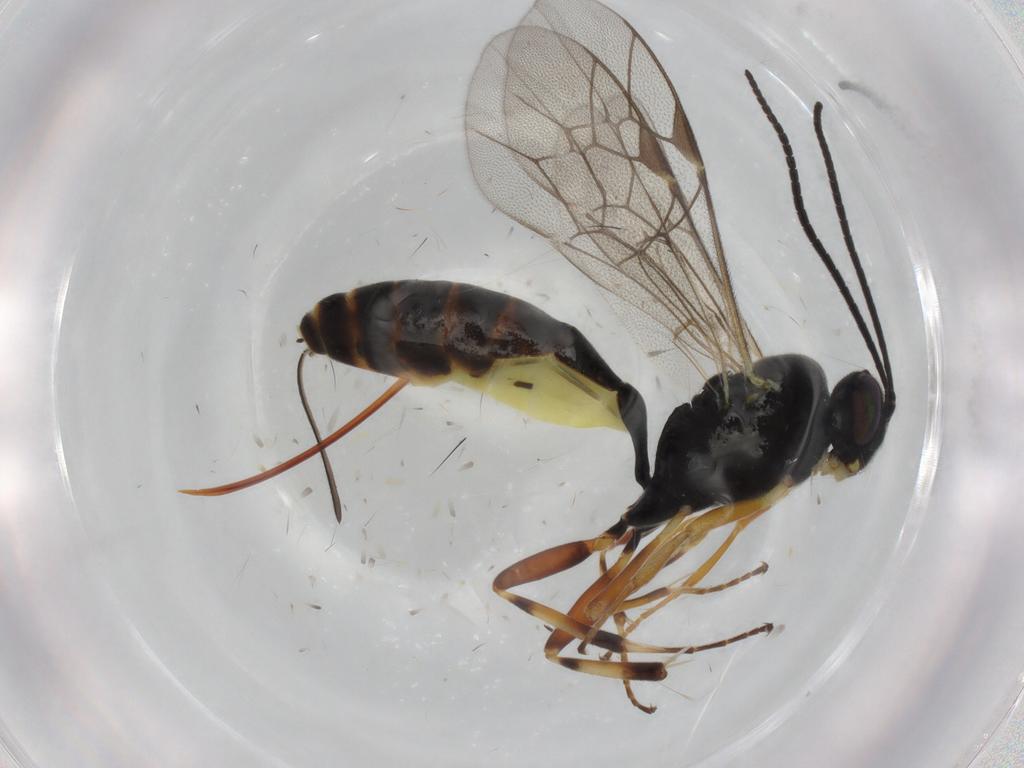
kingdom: Animalia
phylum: Arthropoda
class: Insecta
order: Hymenoptera
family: Ichneumonidae
